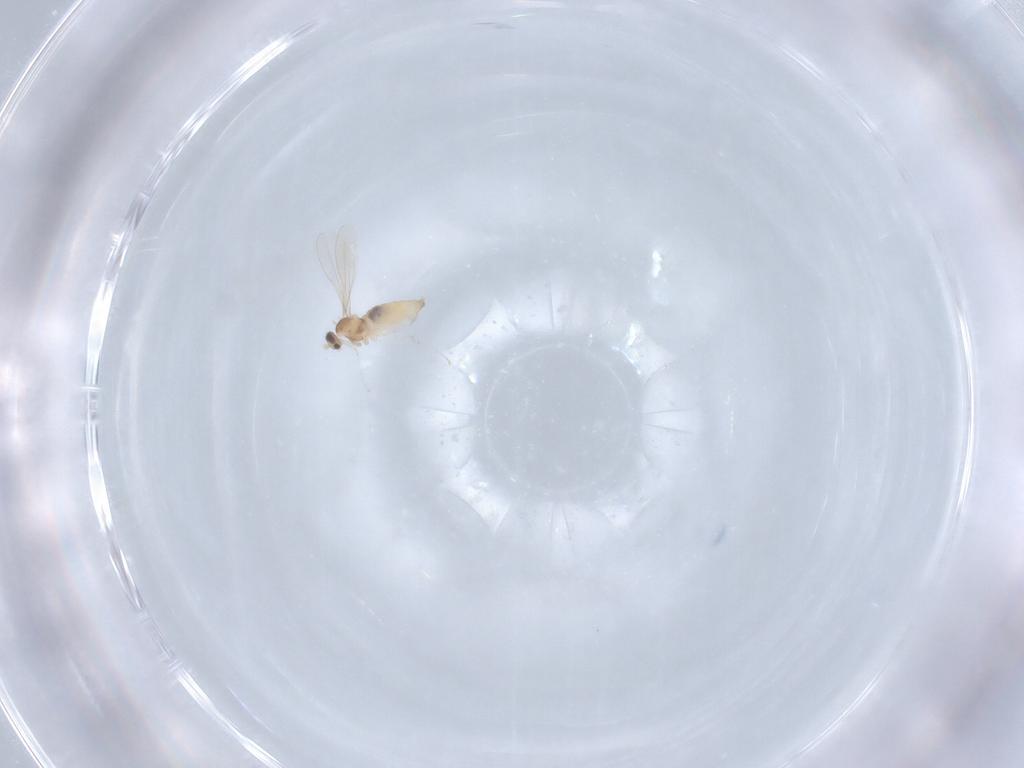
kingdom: Animalia
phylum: Arthropoda
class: Insecta
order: Diptera
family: Cecidomyiidae
